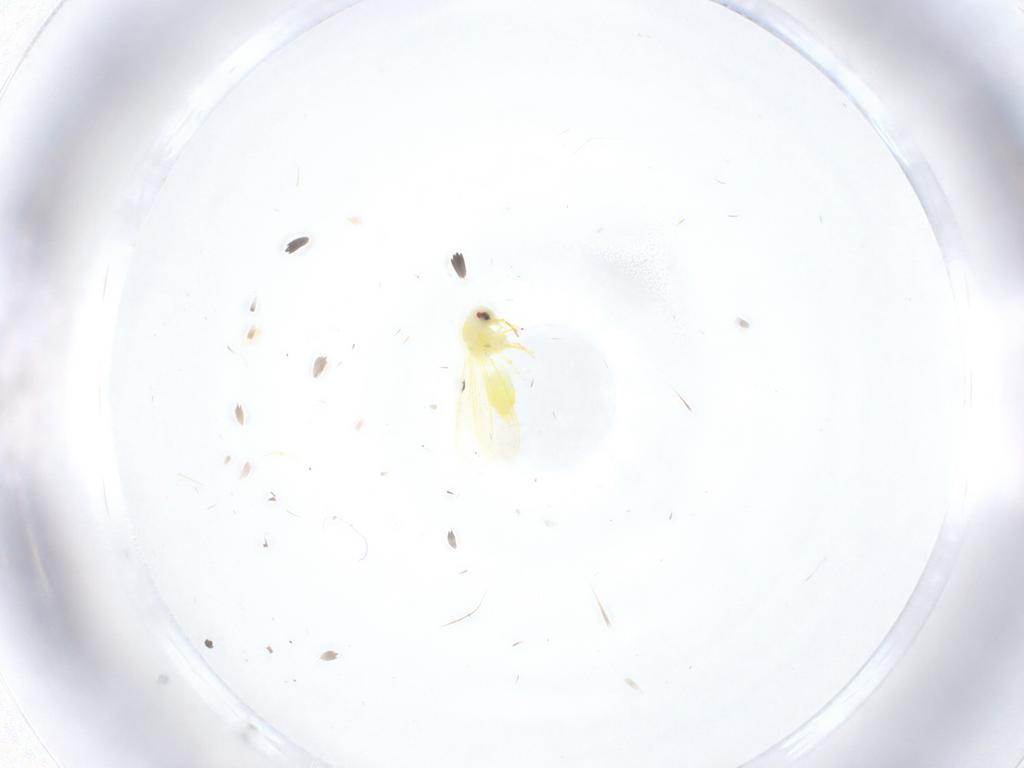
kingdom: Animalia
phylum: Arthropoda
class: Insecta
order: Hemiptera
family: Aleyrodidae
